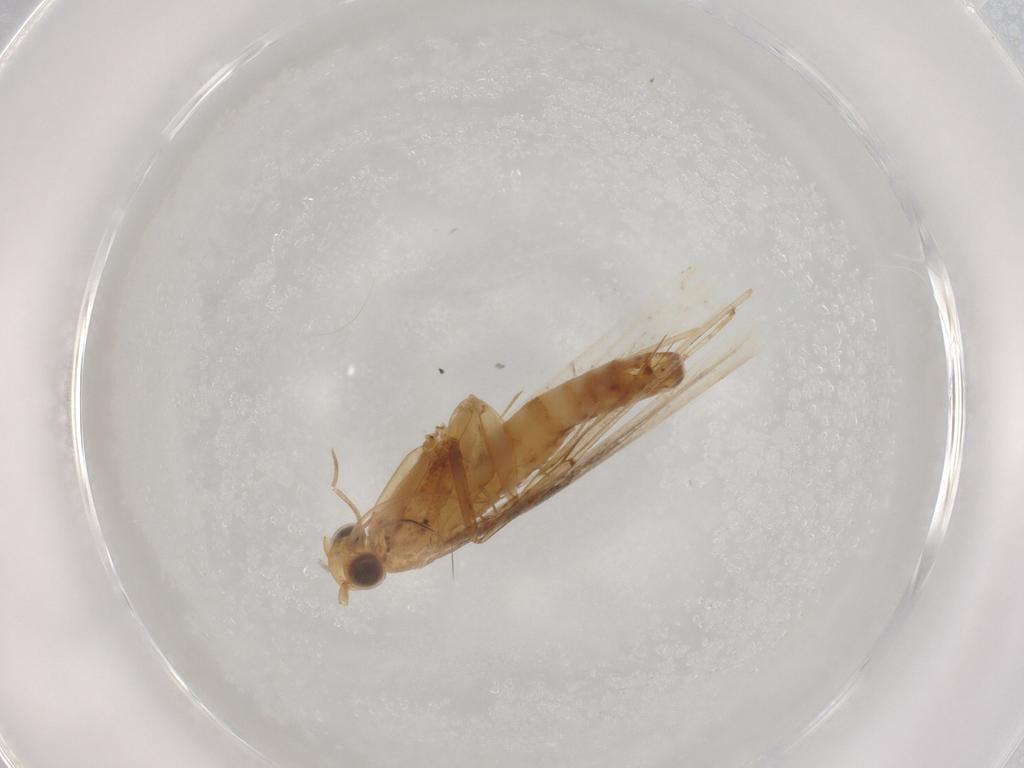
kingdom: Animalia
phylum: Arthropoda
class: Insecta
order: Lepidoptera
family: Gracillariidae
